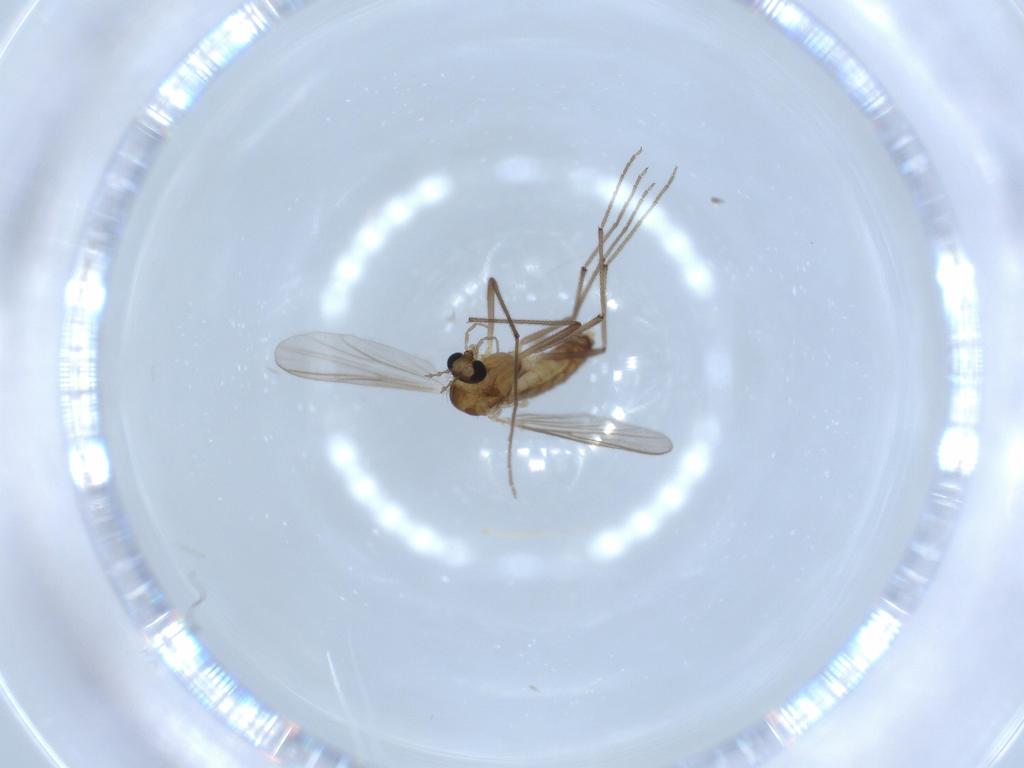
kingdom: Animalia
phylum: Arthropoda
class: Insecta
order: Diptera
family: Chironomidae
